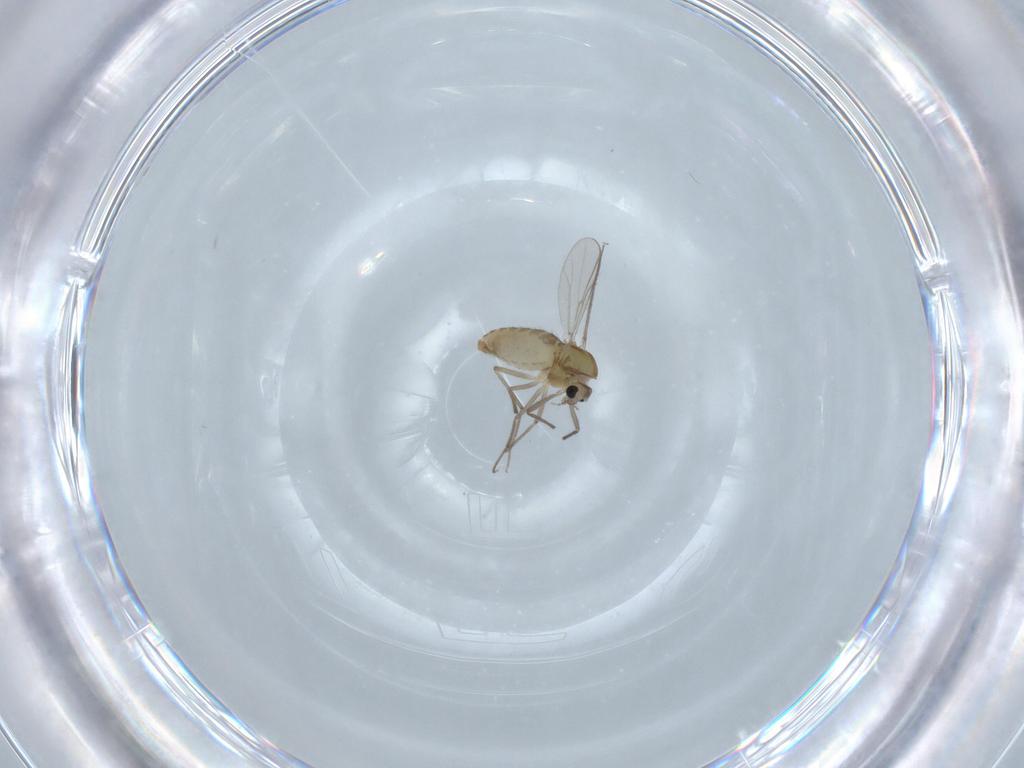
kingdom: Animalia
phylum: Arthropoda
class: Insecta
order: Diptera
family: Chironomidae
